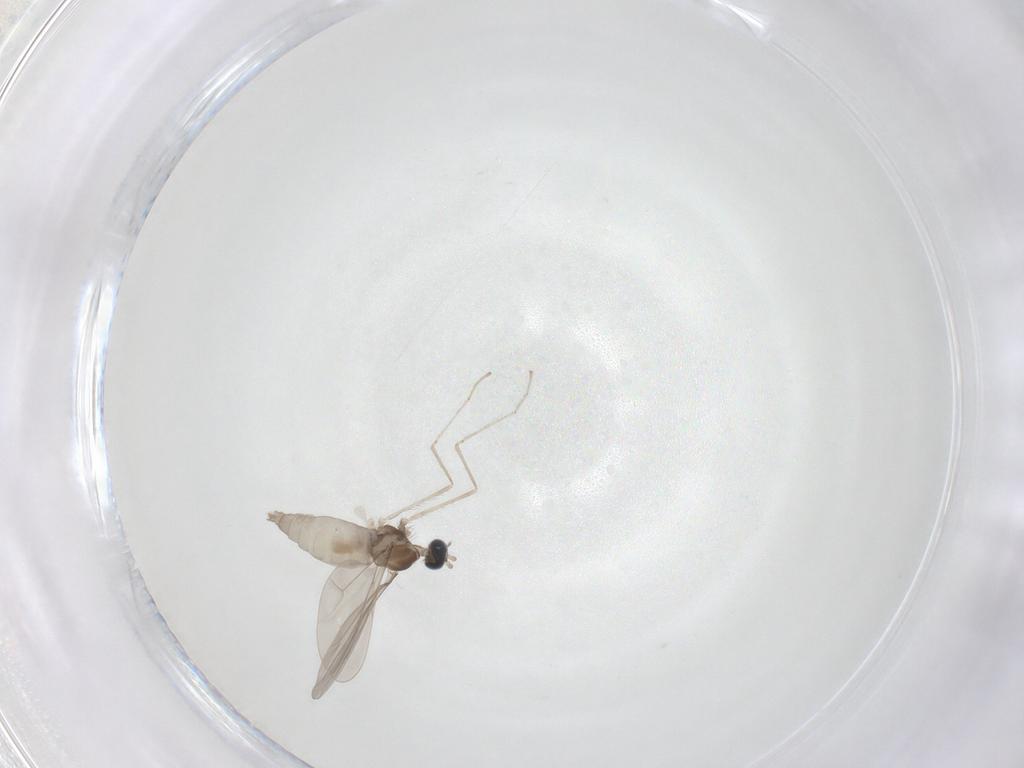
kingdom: Animalia
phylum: Arthropoda
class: Insecta
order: Diptera
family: Cecidomyiidae
